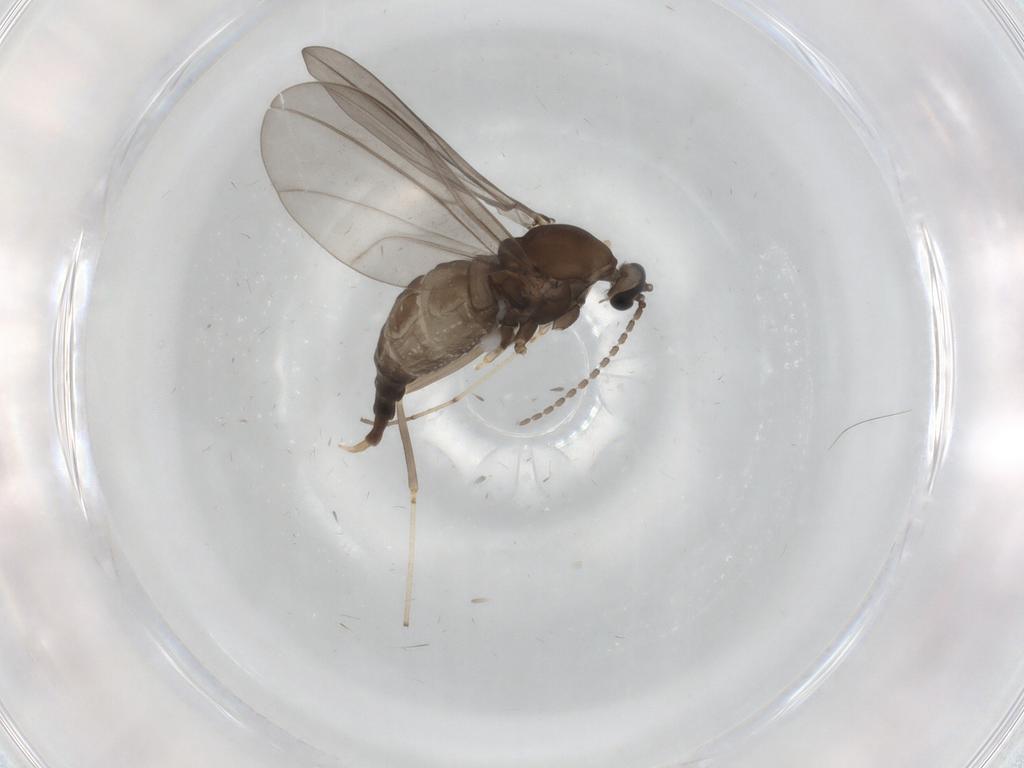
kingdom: Animalia
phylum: Arthropoda
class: Insecta
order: Diptera
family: Cecidomyiidae
